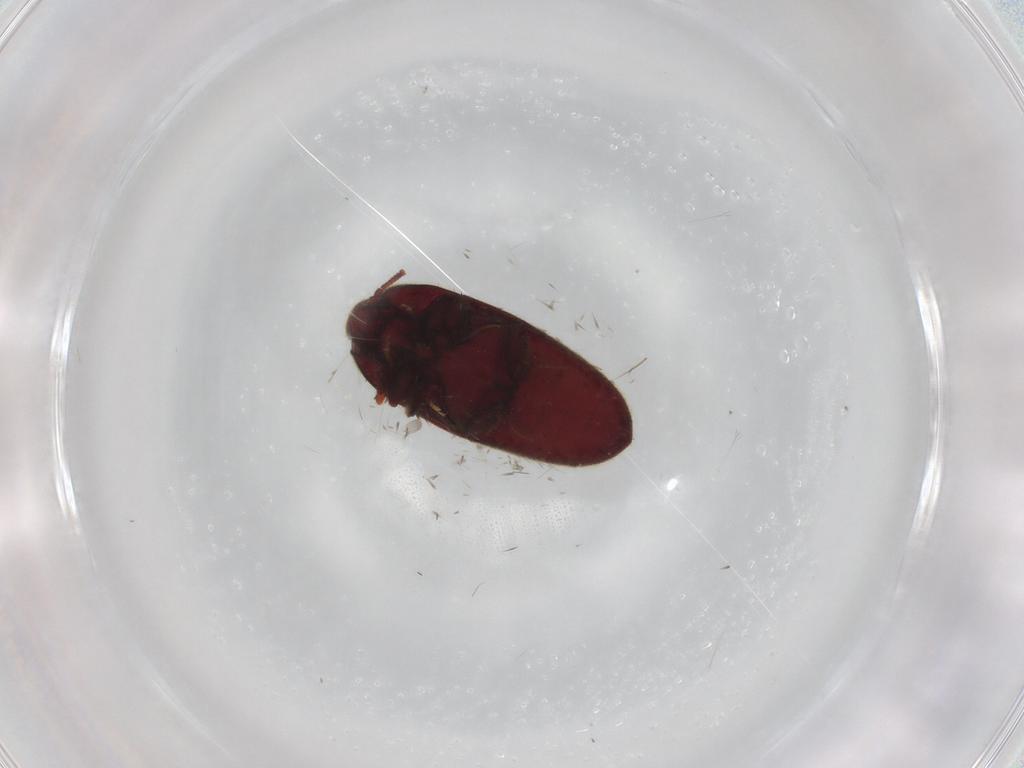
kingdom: Animalia
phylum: Arthropoda
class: Insecta
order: Coleoptera
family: Throscidae
